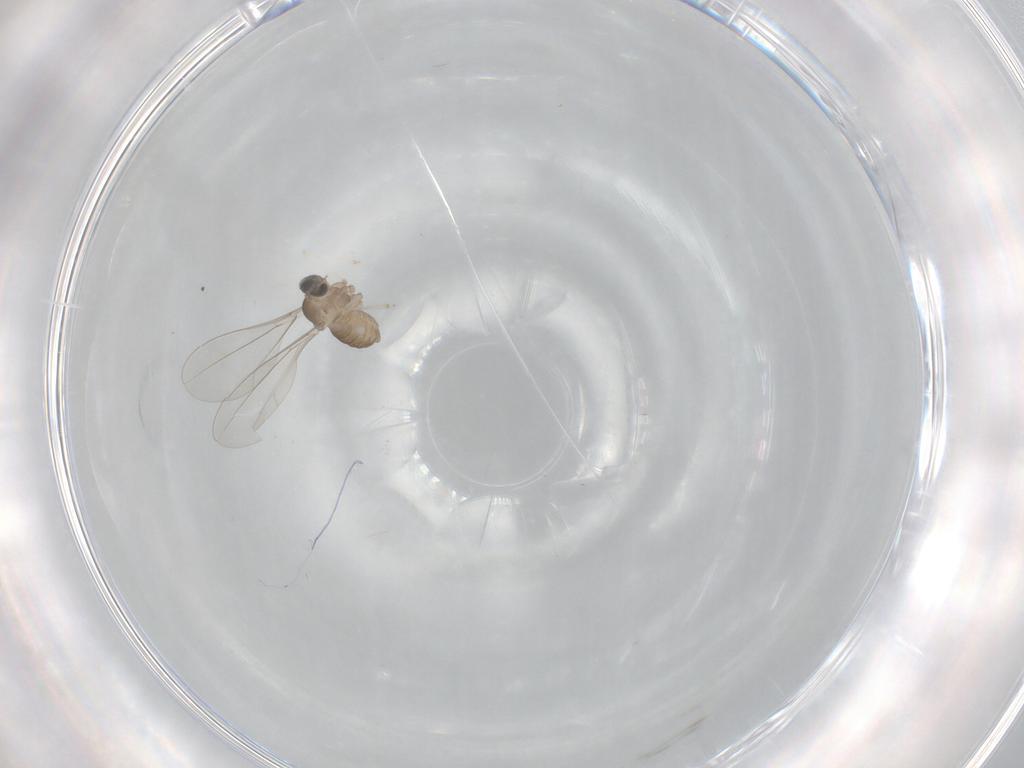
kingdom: Animalia
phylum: Arthropoda
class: Insecta
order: Diptera
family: Cecidomyiidae
